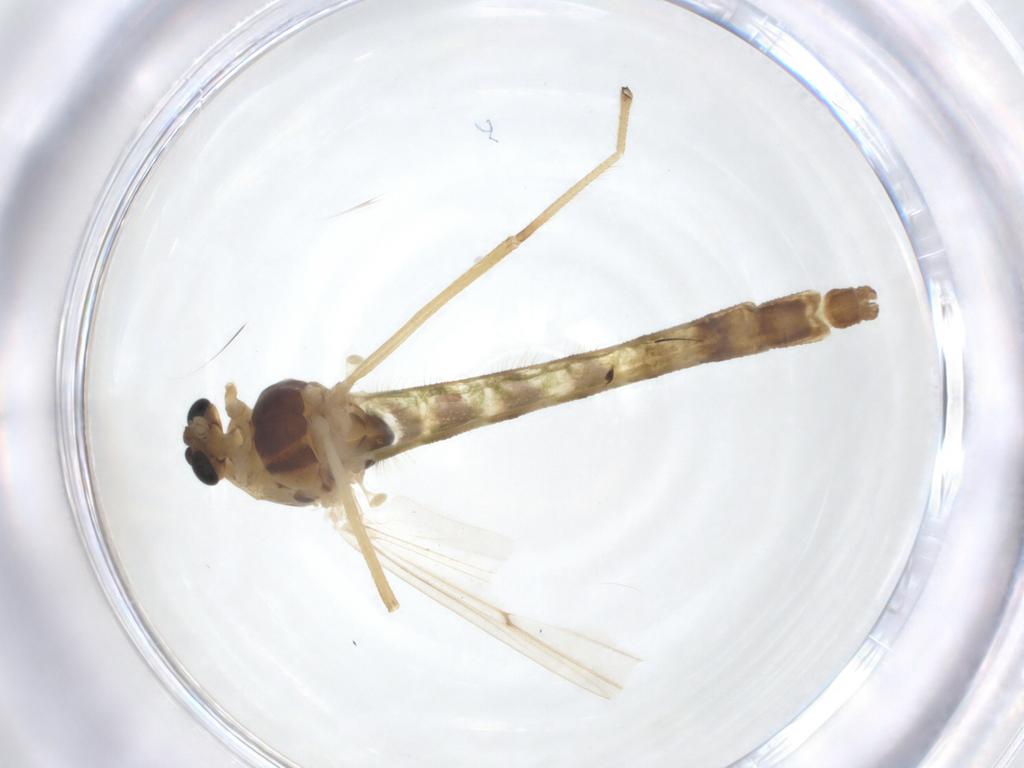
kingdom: Animalia
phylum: Arthropoda
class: Insecta
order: Diptera
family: Chironomidae
